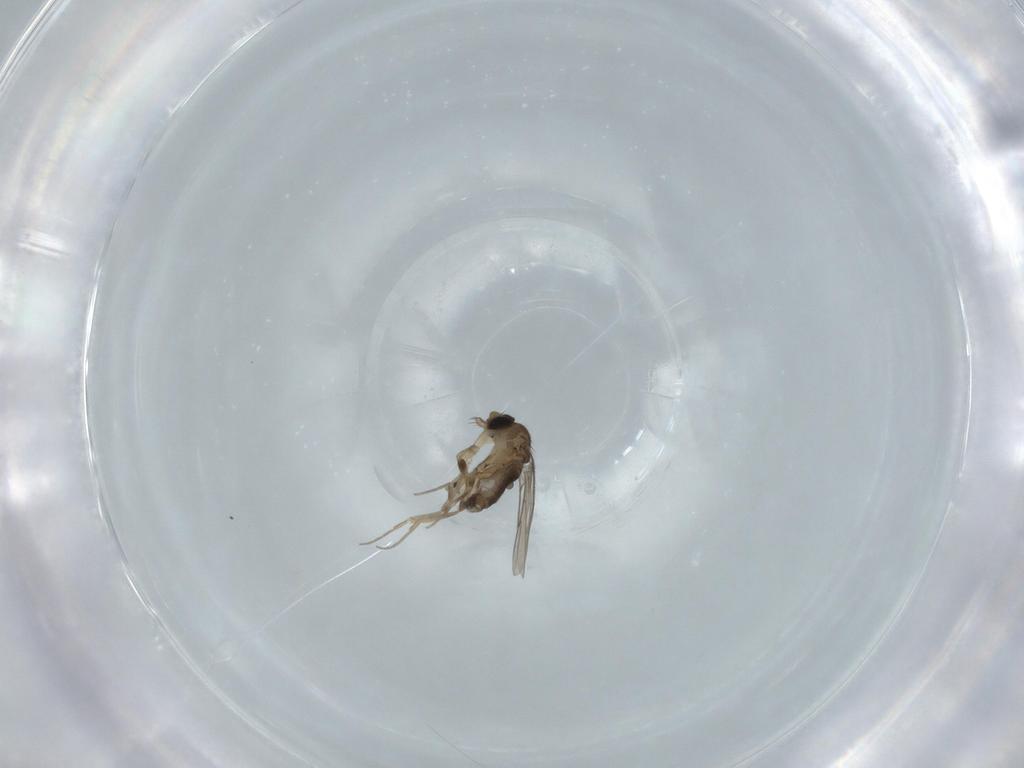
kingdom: Animalia
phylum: Arthropoda
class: Insecta
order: Diptera
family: Phoridae
